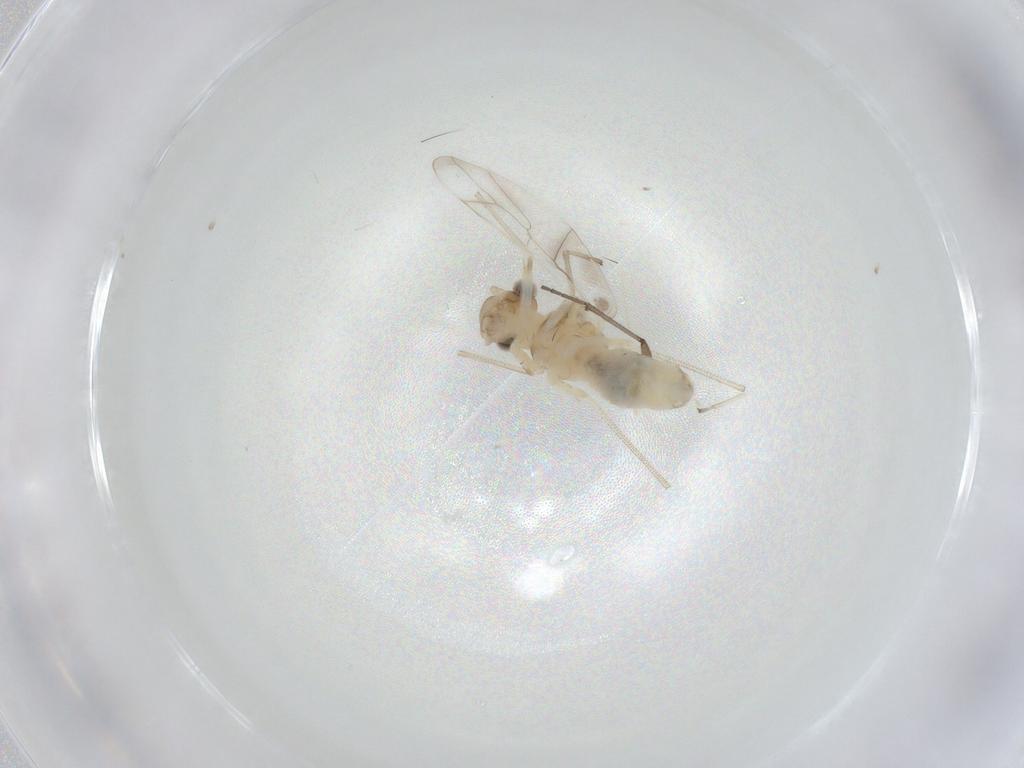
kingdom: Animalia
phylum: Arthropoda
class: Insecta
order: Psocodea
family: Stenopsocidae
